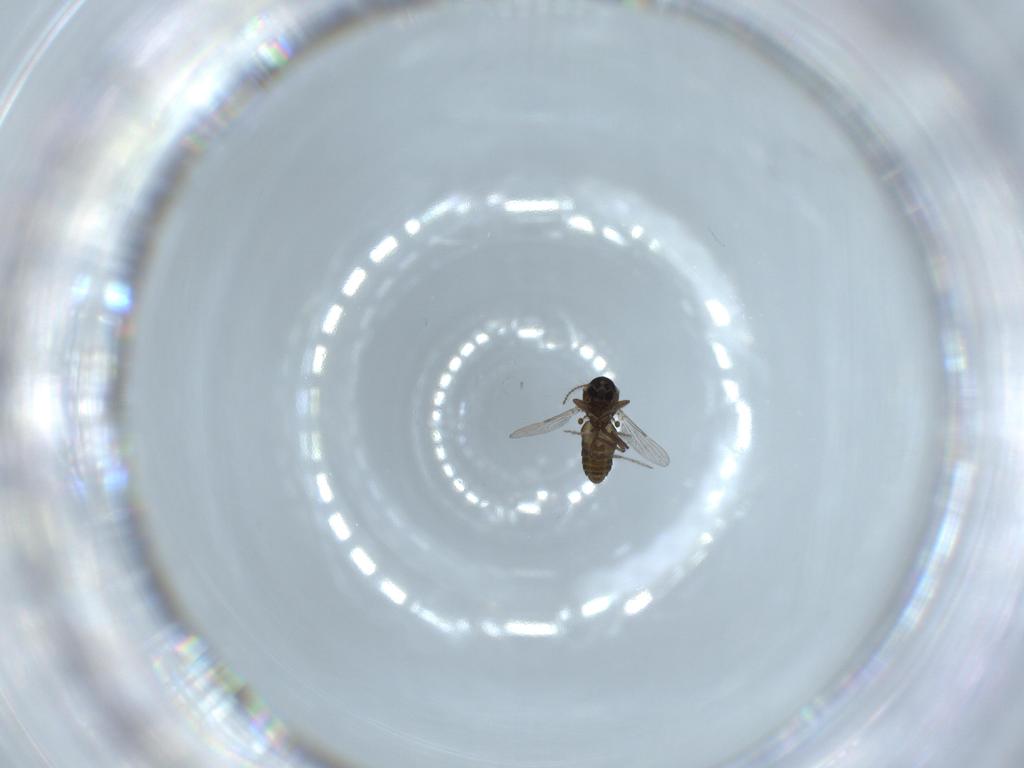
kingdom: Animalia
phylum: Arthropoda
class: Insecta
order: Diptera
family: Ceratopogonidae
